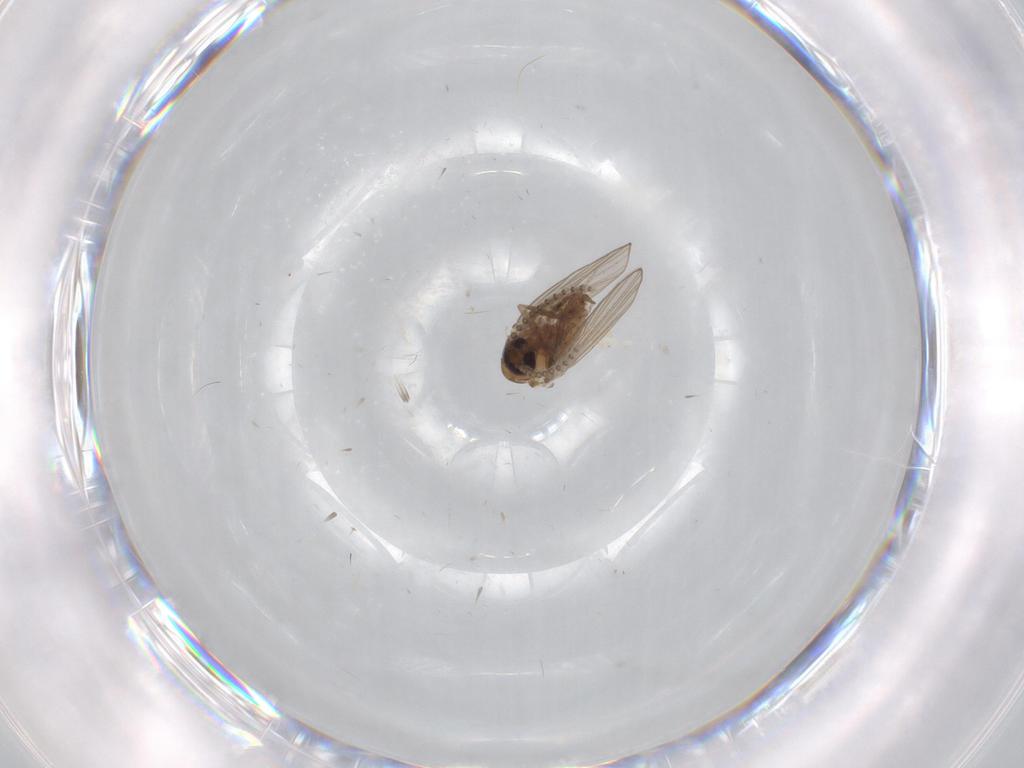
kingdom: Animalia
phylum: Arthropoda
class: Insecta
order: Diptera
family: Psychodidae
